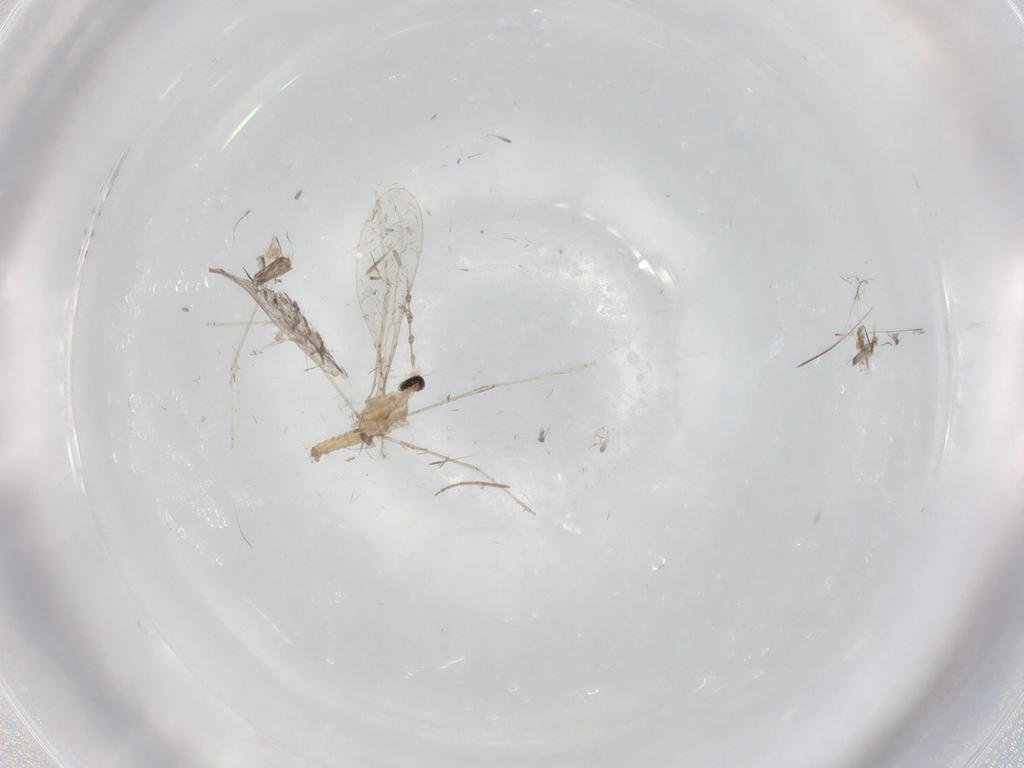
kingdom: Animalia
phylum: Arthropoda
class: Insecta
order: Diptera
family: Cecidomyiidae
